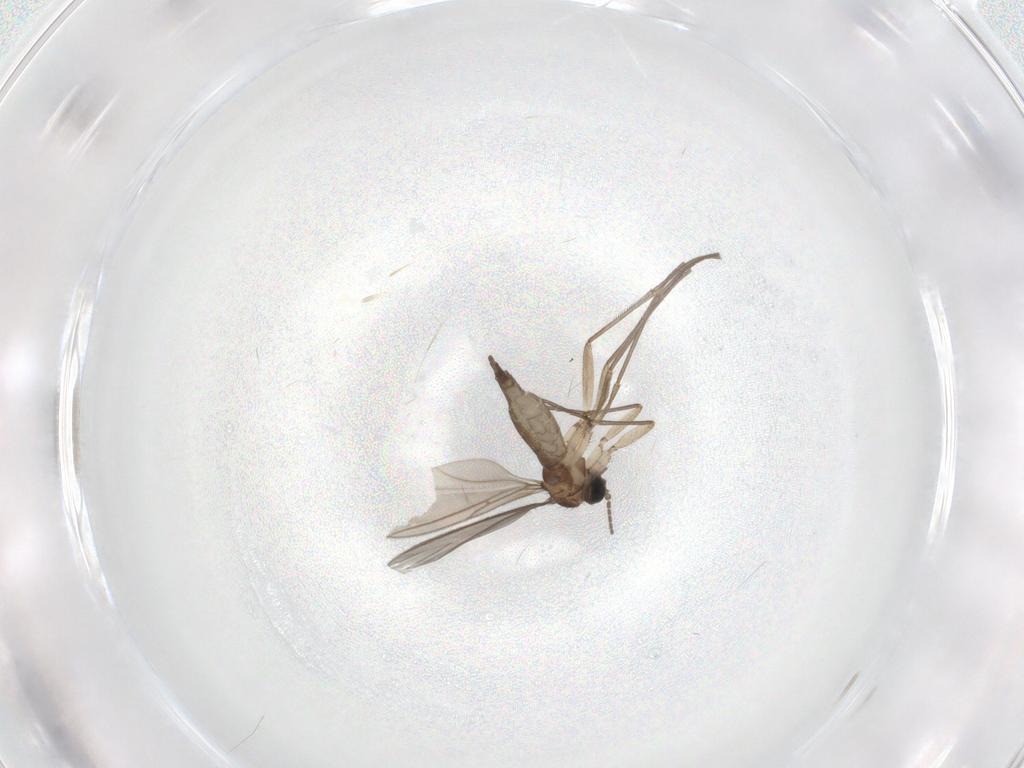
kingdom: Animalia
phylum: Arthropoda
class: Insecta
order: Diptera
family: Sciaridae
